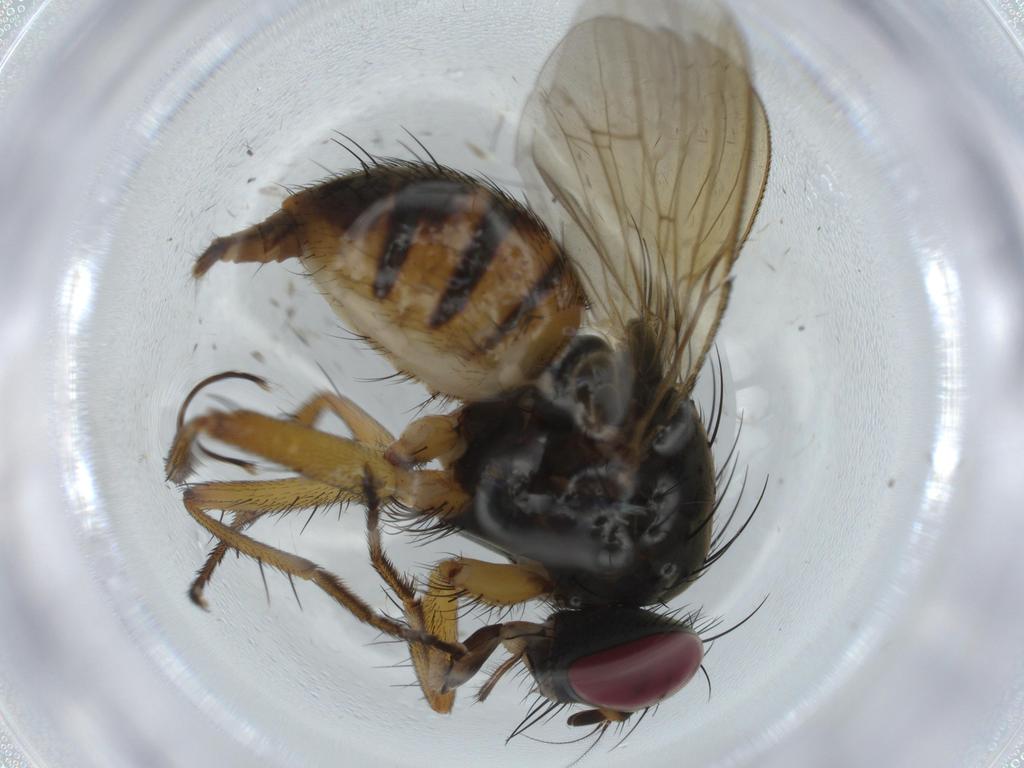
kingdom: Animalia
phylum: Arthropoda
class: Insecta
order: Diptera
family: Muscidae
